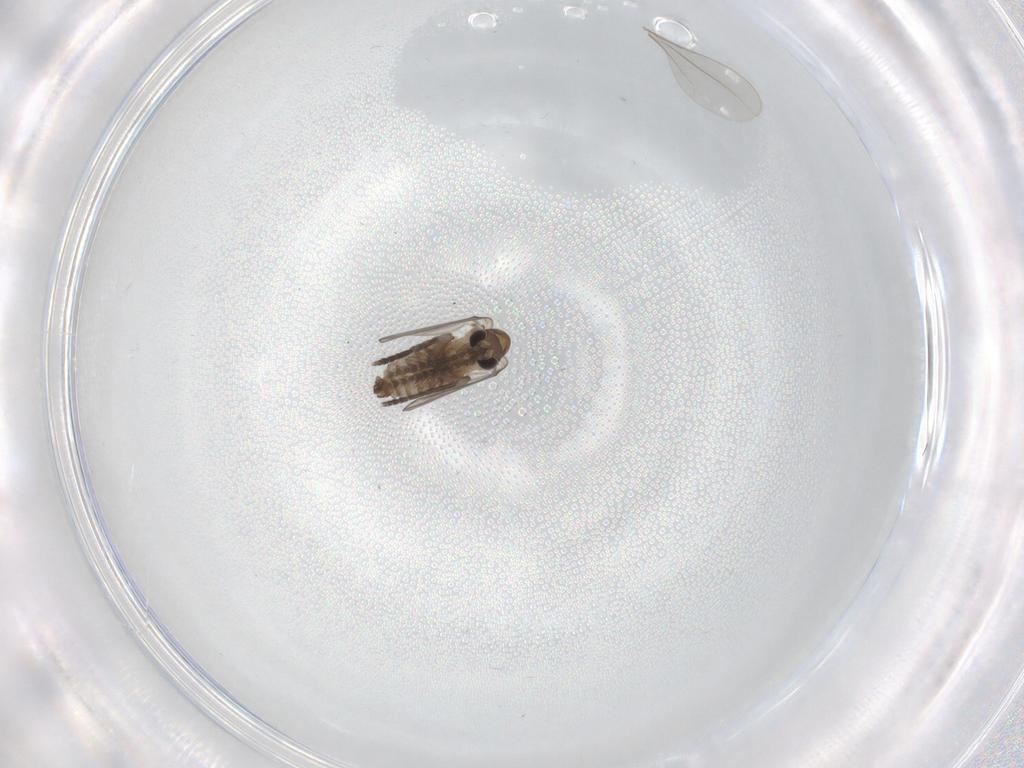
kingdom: Animalia
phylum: Arthropoda
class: Insecta
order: Diptera
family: Cecidomyiidae
